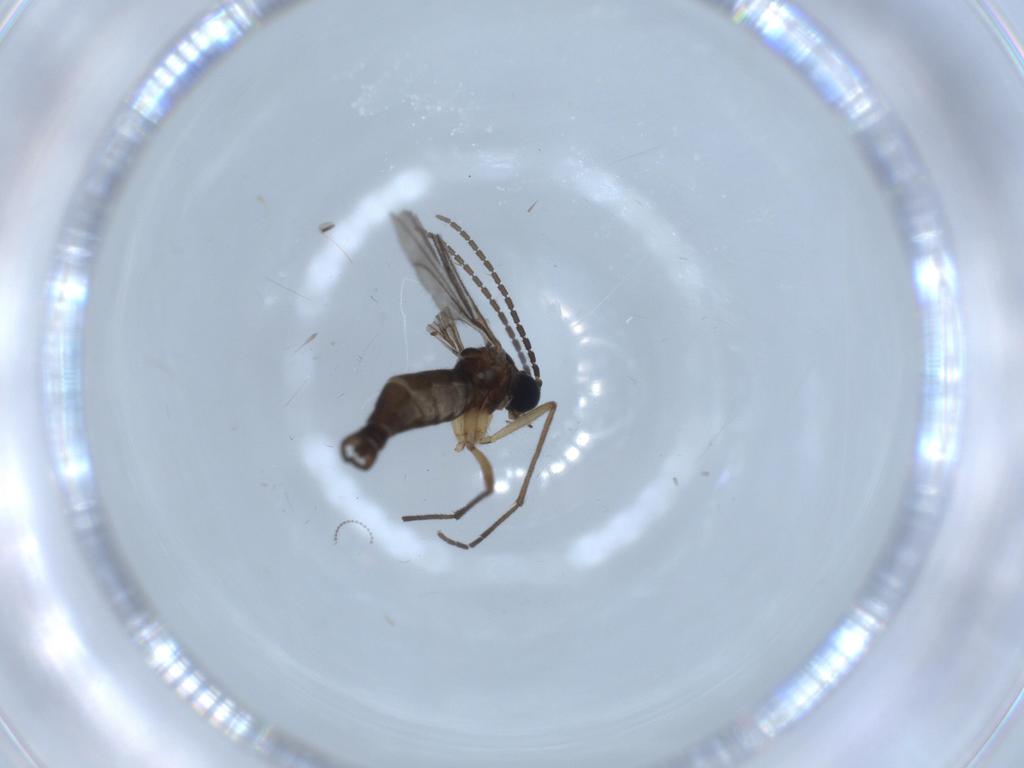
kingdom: Animalia
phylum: Arthropoda
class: Insecta
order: Diptera
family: Sciaridae
